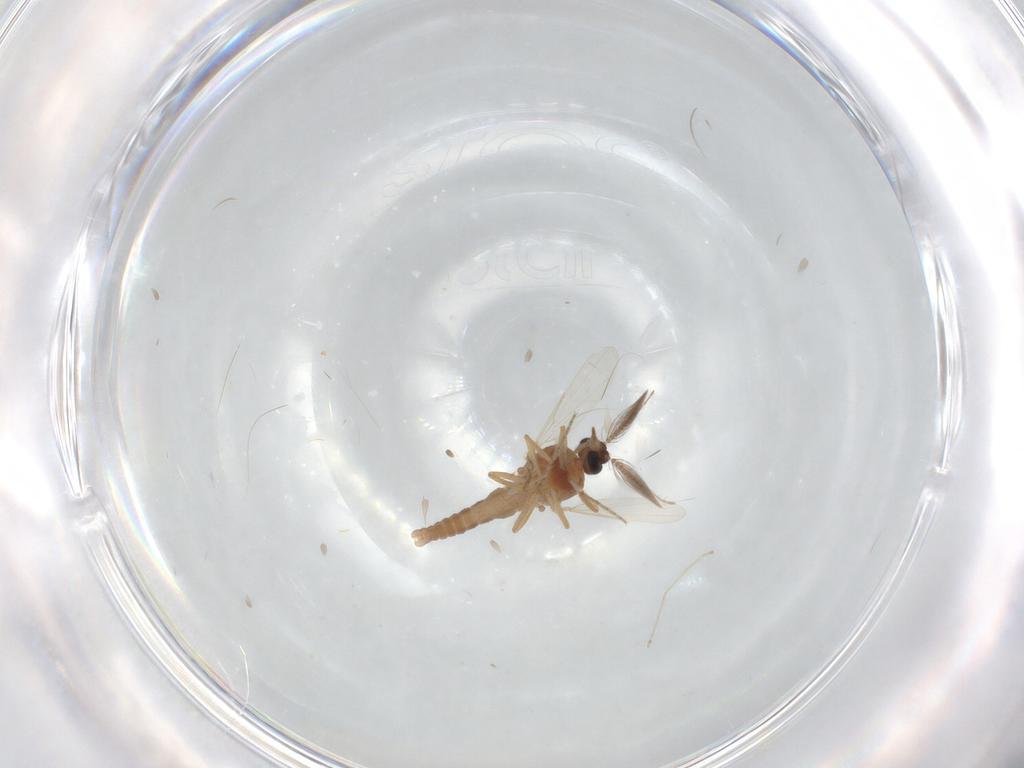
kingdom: Animalia
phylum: Arthropoda
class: Insecta
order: Diptera
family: Ceratopogonidae
